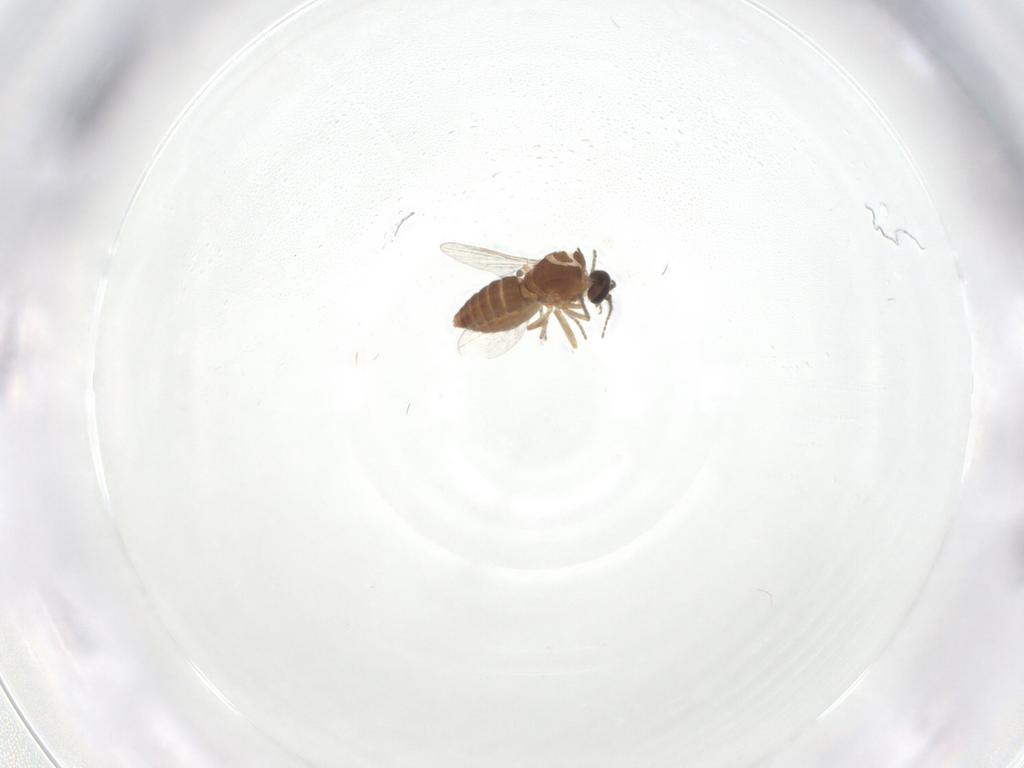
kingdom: Animalia
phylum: Arthropoda
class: Insecta
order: Diptera
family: Ceratopogonidae
